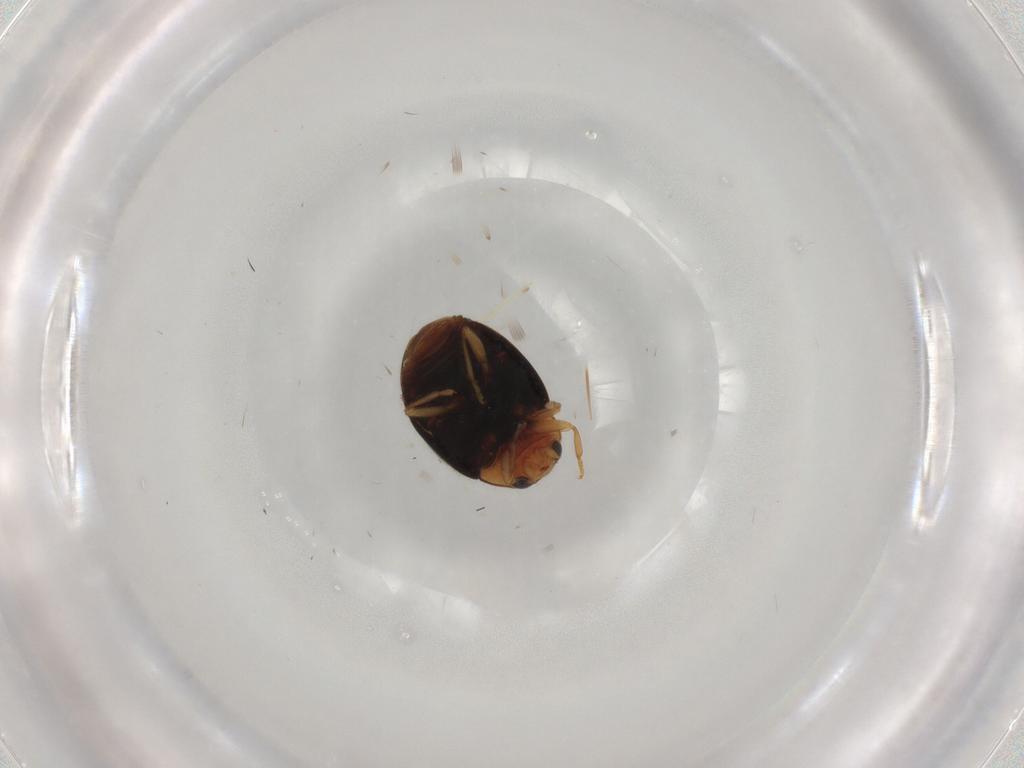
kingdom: Animalia
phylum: Arthropoda
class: Insecta
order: Coleoptera
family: Coccinellidae
